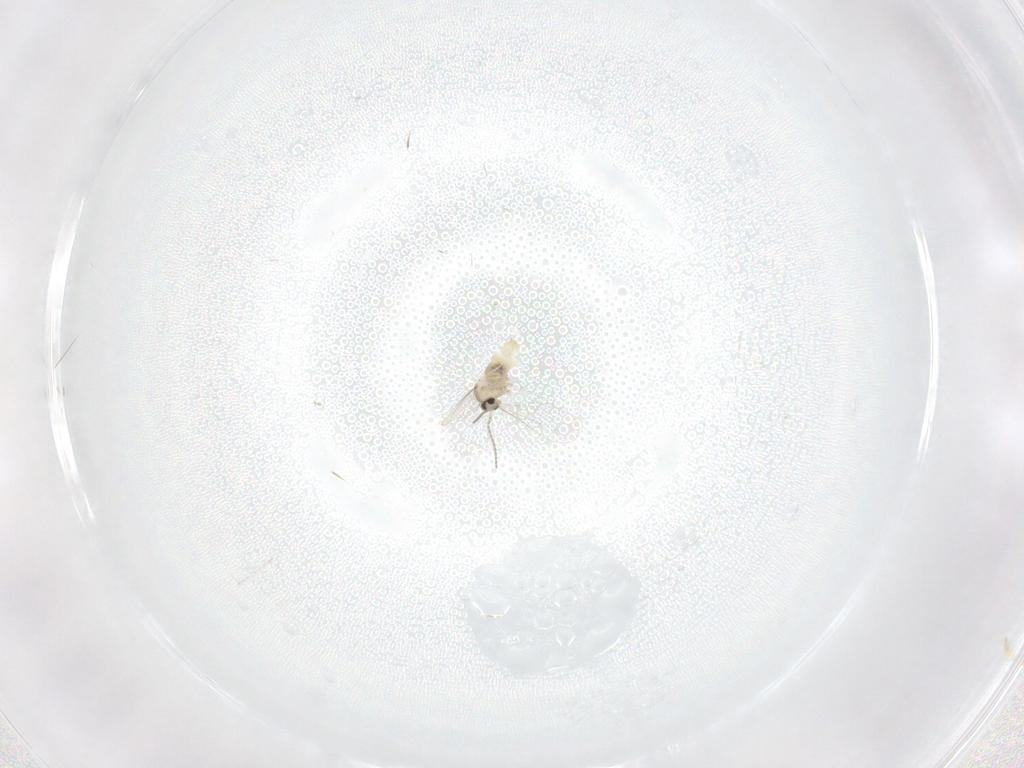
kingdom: Animalia
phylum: Arthropoda
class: Insecta
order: Diptera
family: Cecidomyiidae
